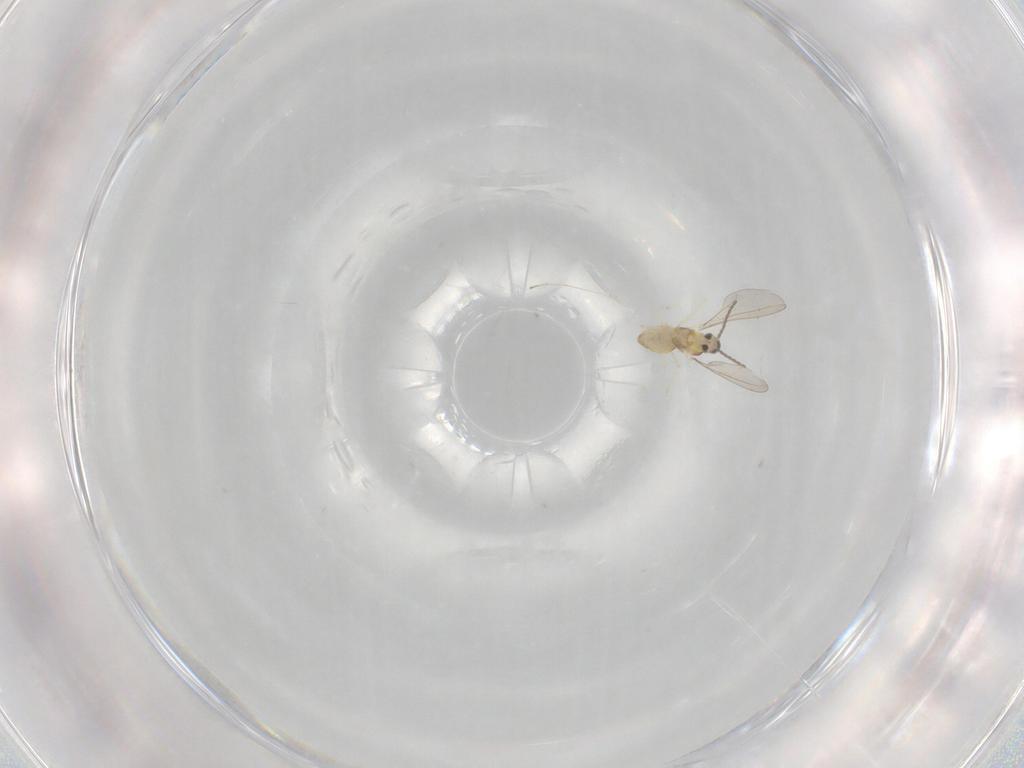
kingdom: Animalia
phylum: Arthropoda
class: Insecta
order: Diptera
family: Cecidomyiidae
